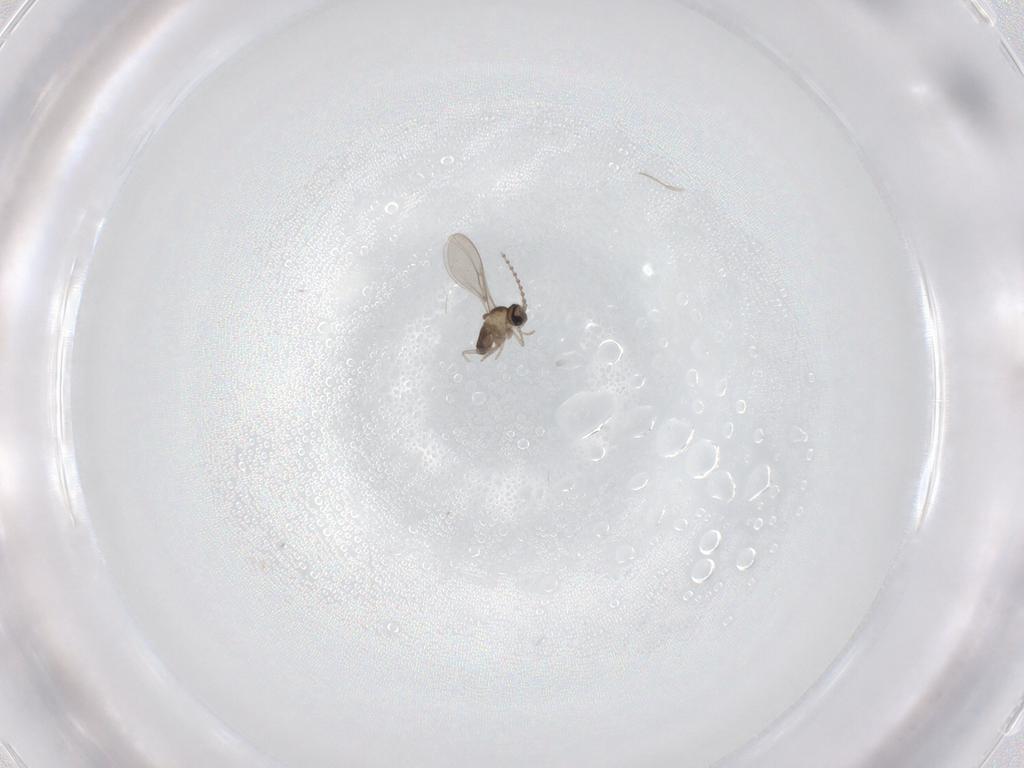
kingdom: Animalia
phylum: Arthropoda
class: Insecta
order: Diptera
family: Cecidomyiidae
